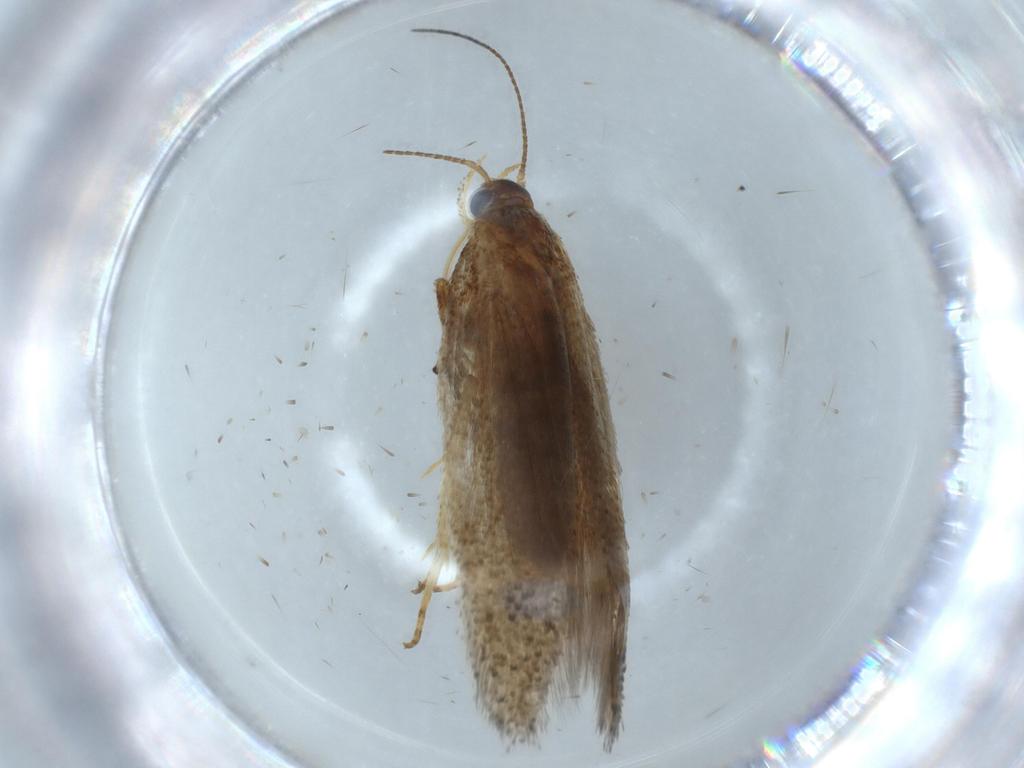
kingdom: Animalia
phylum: Arthropoda
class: Insecta
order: Lepidoptera
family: Oecophoridae
